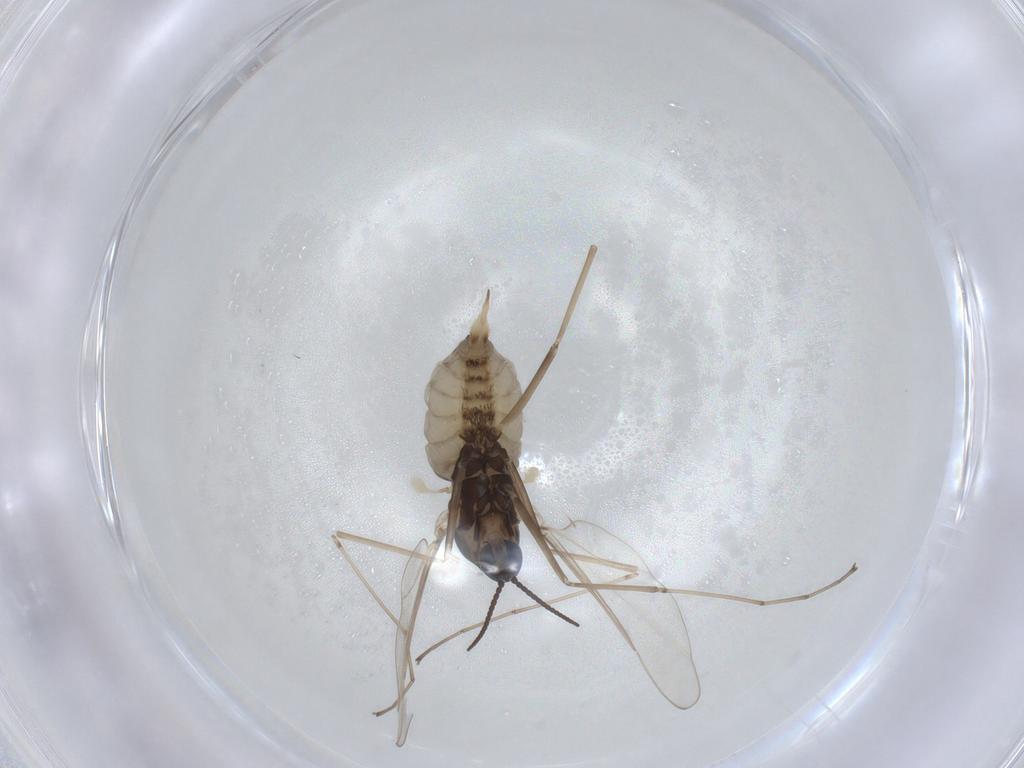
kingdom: Animalia
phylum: Arthropoda
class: Insecta
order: Diptera
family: Cecidomyiidae
